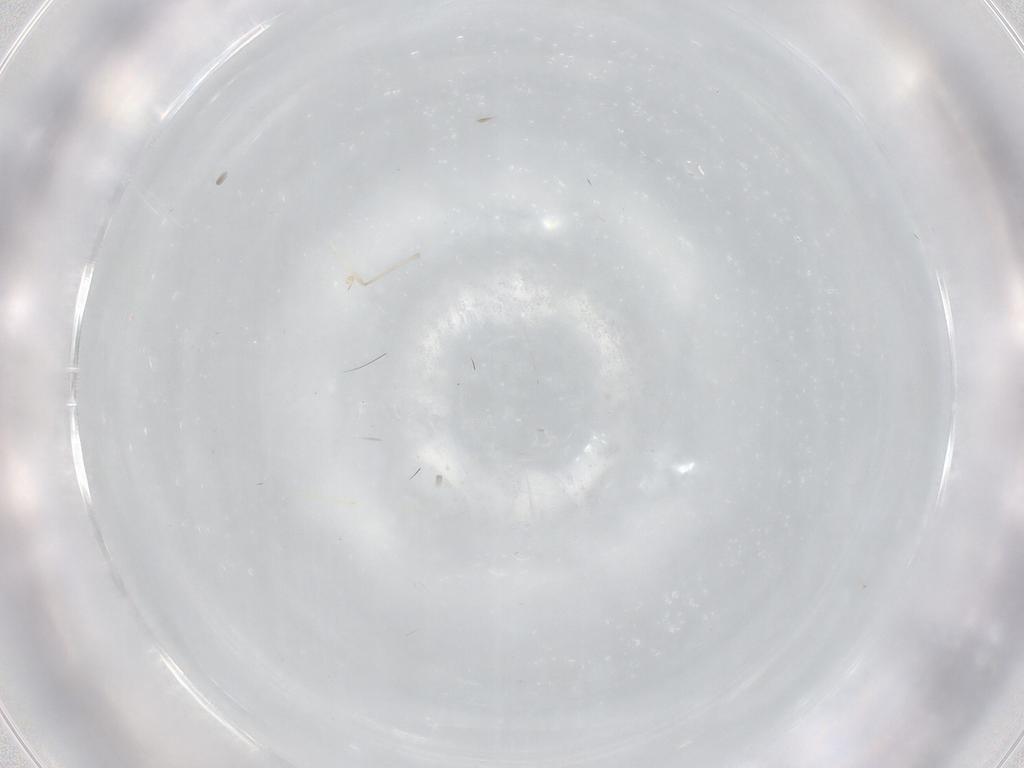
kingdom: Animalia
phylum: Arthropoda
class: Insecta
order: Diptera
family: Cecidomyiidae
